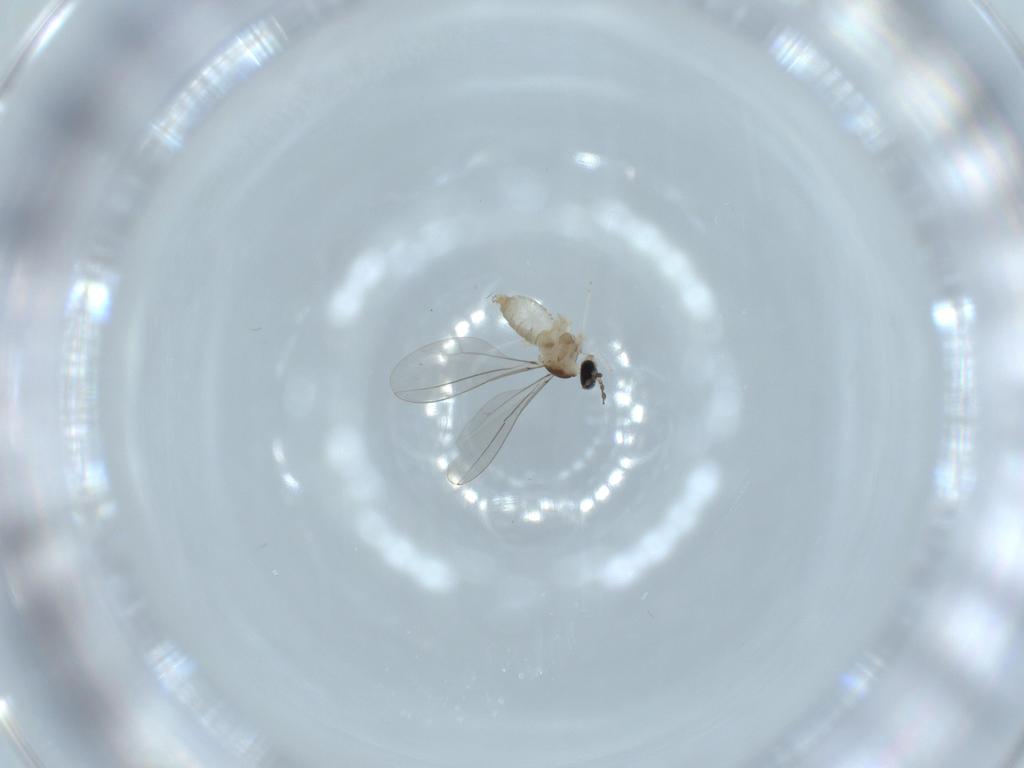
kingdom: Animalia
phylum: Arthropoda
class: Insecta
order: Diptera
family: Cecidomyiidae
